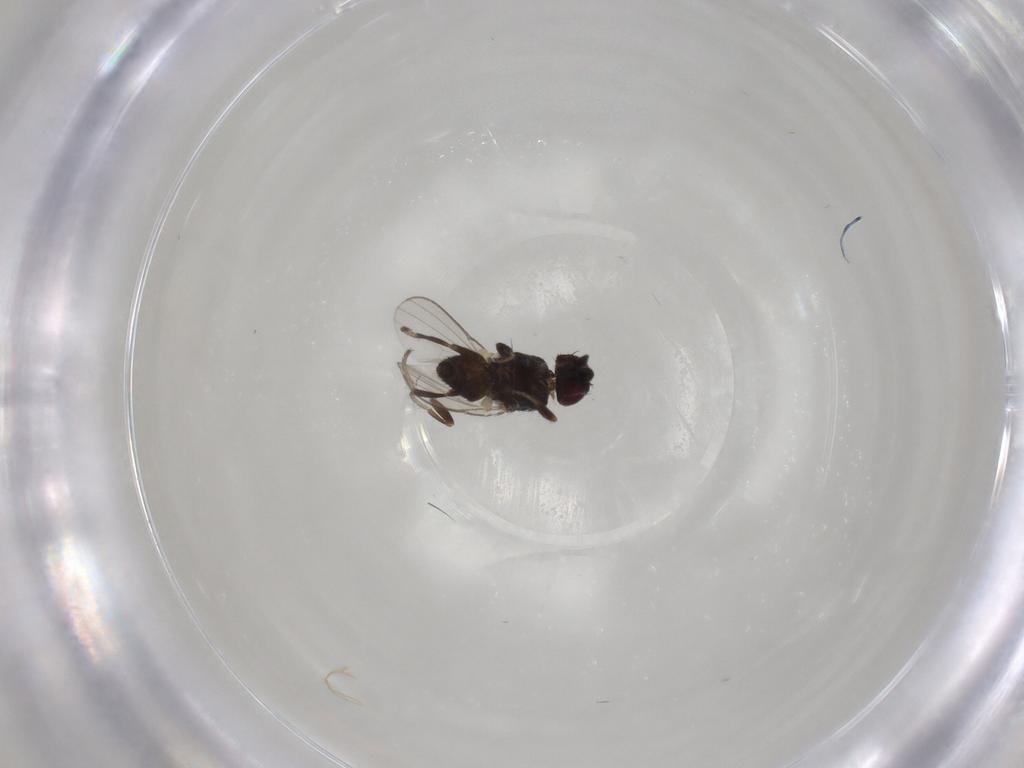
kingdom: Animalia
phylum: Arthropoda
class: Insecta
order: Diptera
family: Milichiidae
